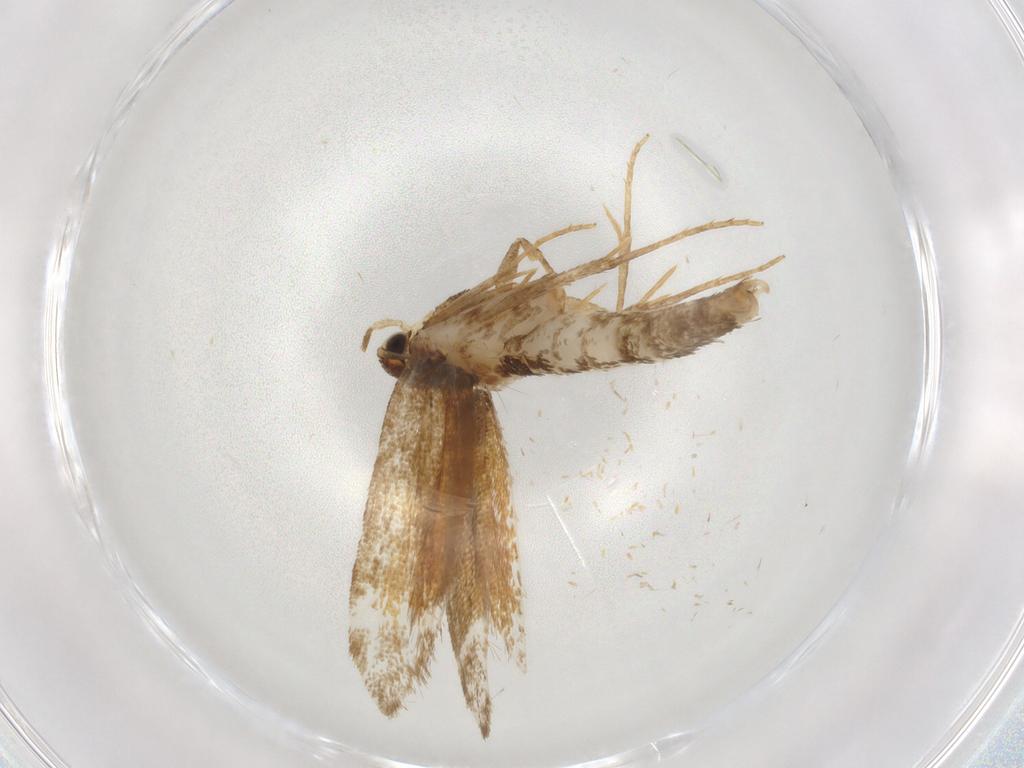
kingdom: Animalia
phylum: Arthropoda
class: Insecta
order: Lepidoptera
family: Tineidae
